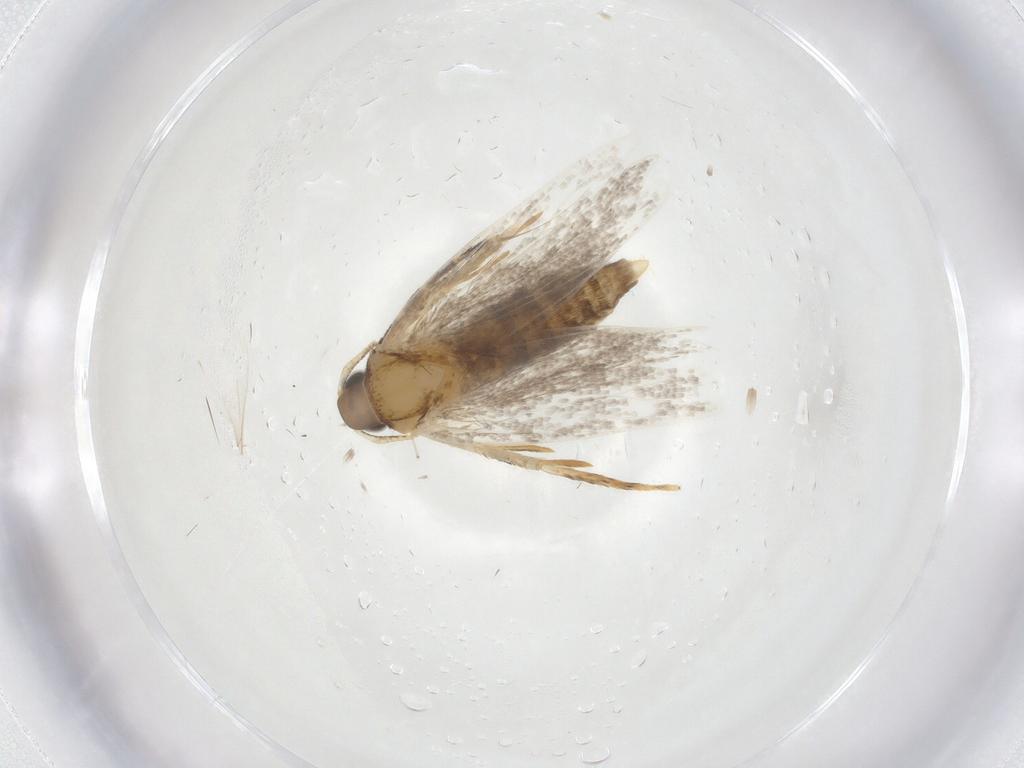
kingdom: Animalia
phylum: Arthropoda
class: Insecta
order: Lepidoptera
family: Oecophoridae
